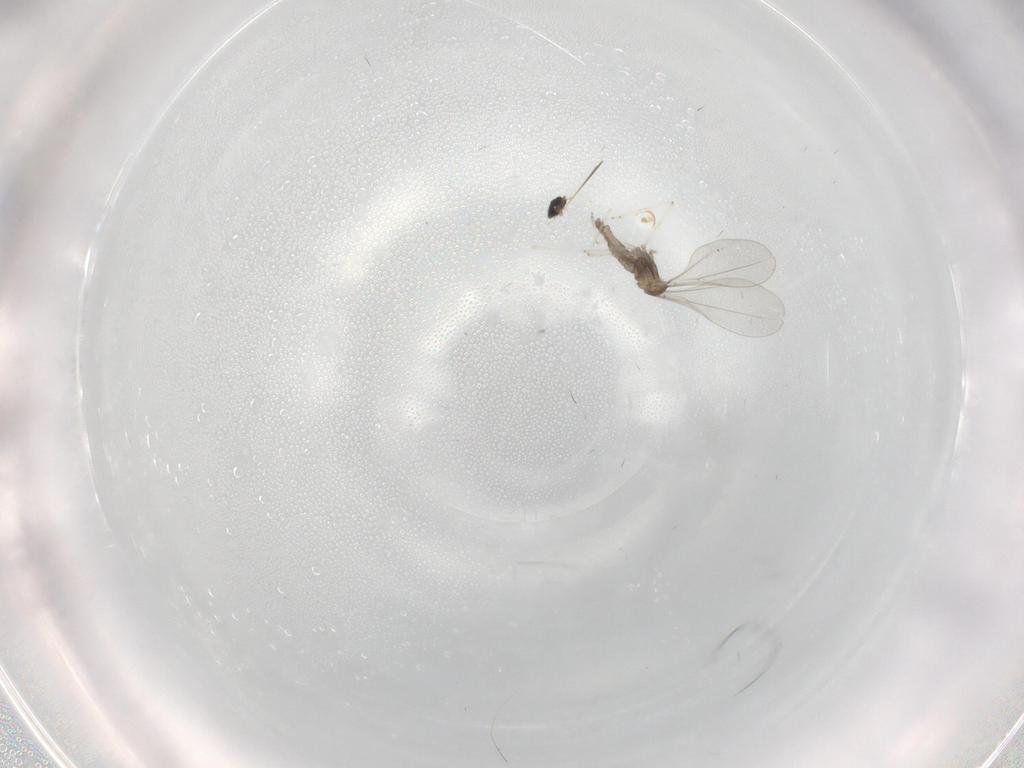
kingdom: Animalia
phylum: Arthropoda
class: Insecta
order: Diptera
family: Cecidomyiidae
